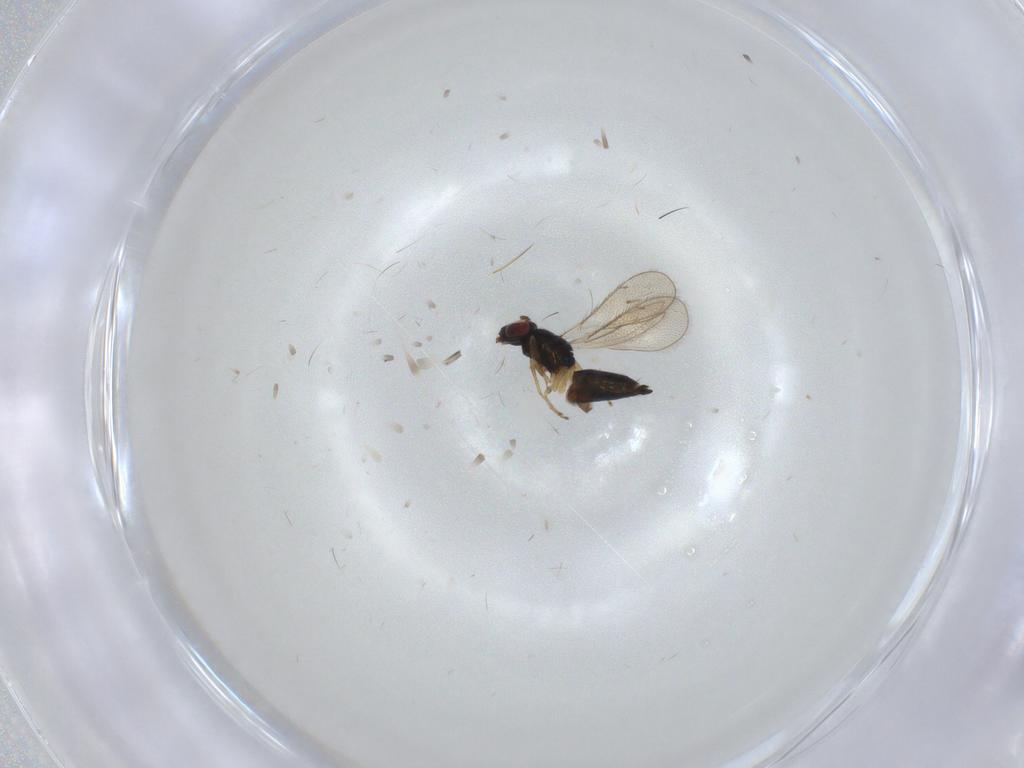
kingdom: Animalia
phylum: Arthropoda
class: Insecta
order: Hymenoptera
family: Eulophidae
